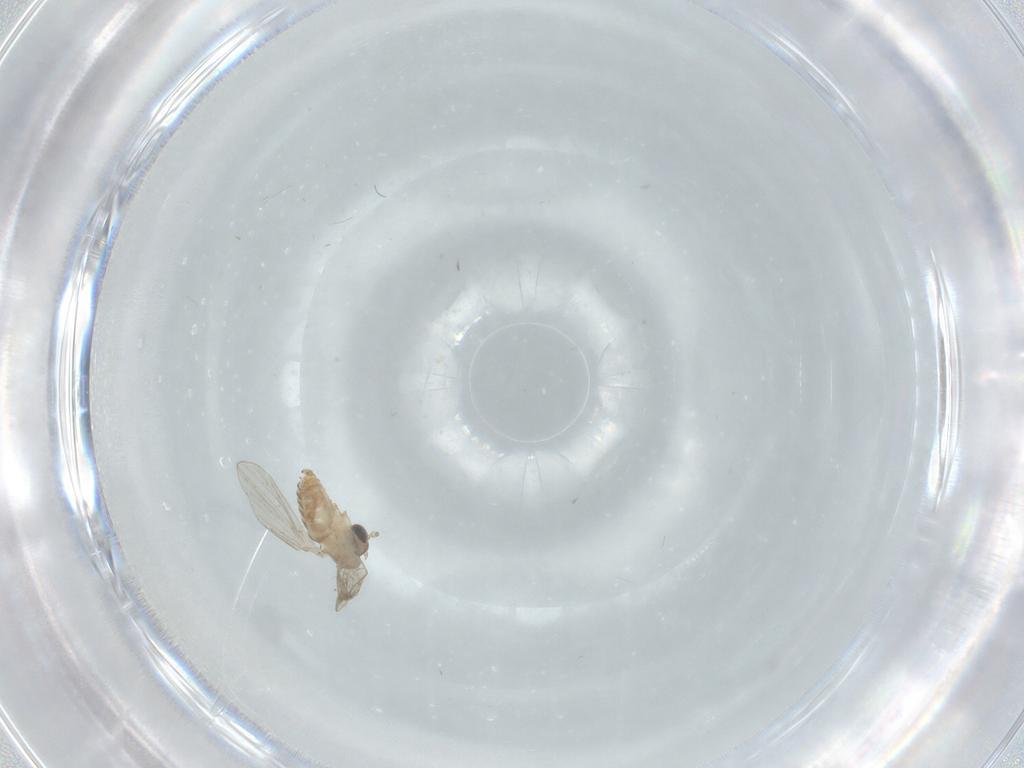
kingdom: Animalia
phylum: Arthropoda
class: Insecta
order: Diptera
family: Psychodidae
